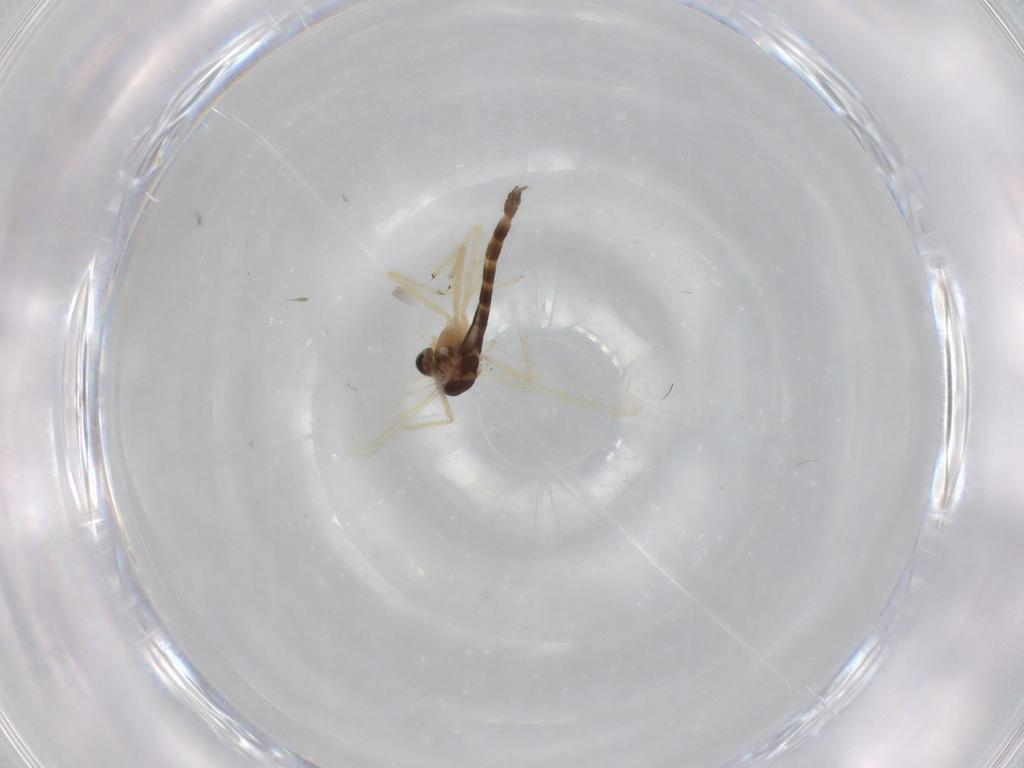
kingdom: Animalia
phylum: Arthropoda
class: Insecta
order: Diptera
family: Chironomidae
